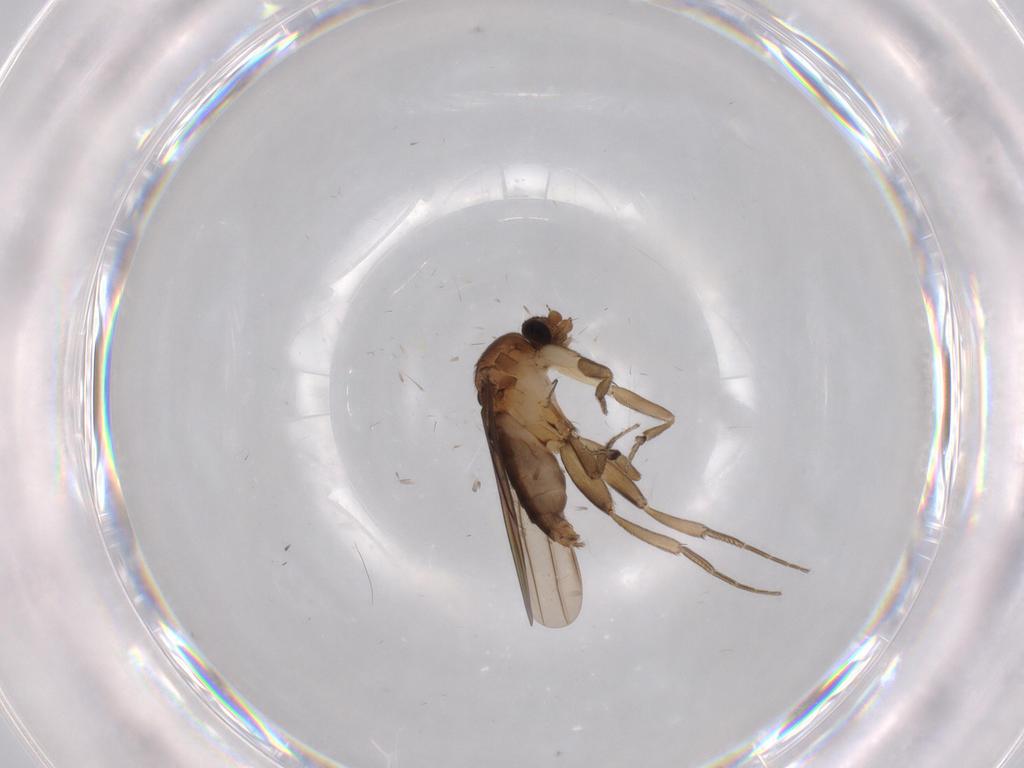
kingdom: Animalia
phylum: Arthropoda
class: Insecta
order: Diptera
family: Phoridae
